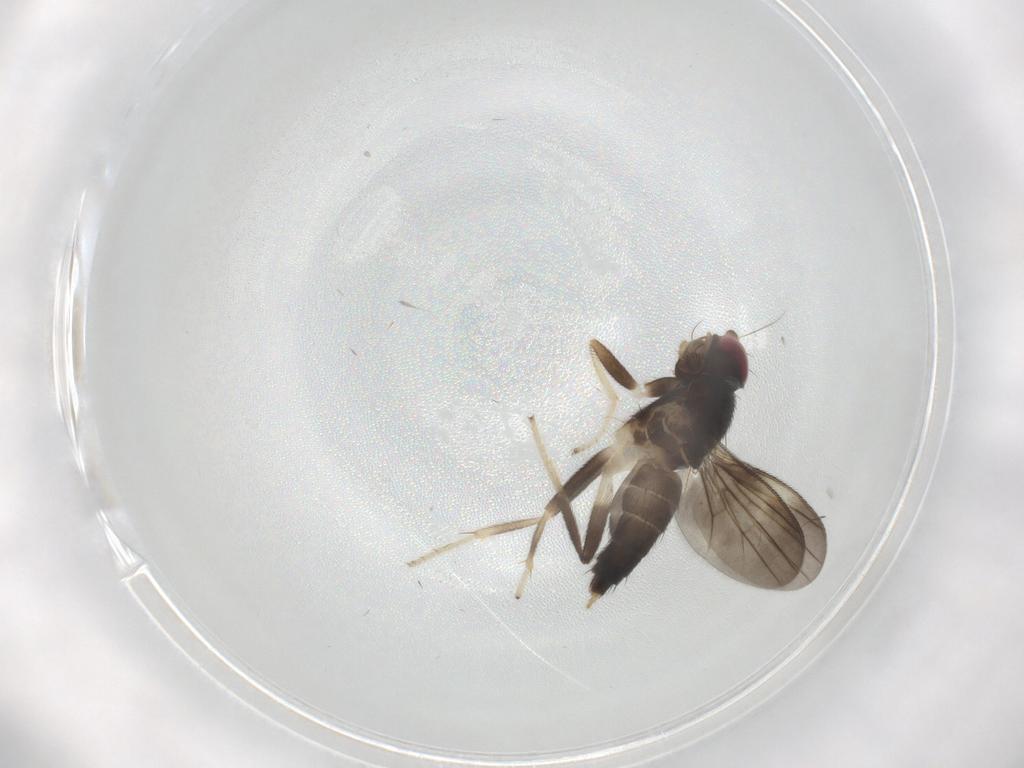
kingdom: Animalia
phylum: Arthropoda
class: Insecta
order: Diptera
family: Clusiidae
